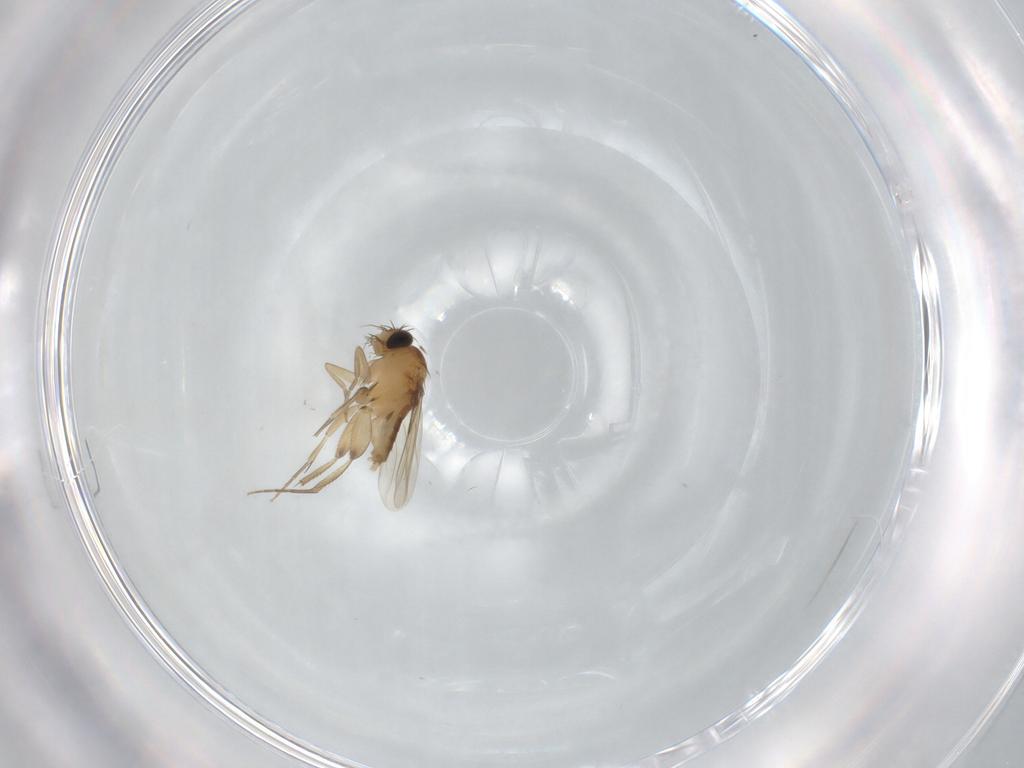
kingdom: Animalia
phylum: Arthropoda
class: Insecta
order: Diptera
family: Phoridae
